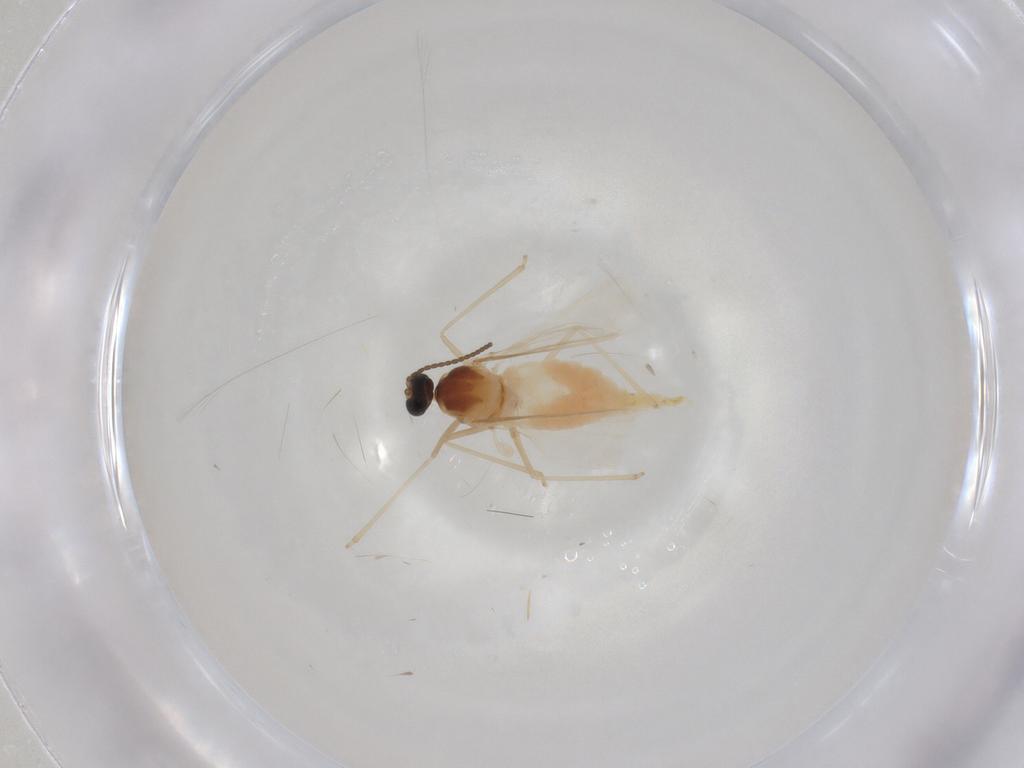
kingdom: Animalia
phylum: Arthropoda
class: Insecta
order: Diptera
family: Cecidomyiidae
